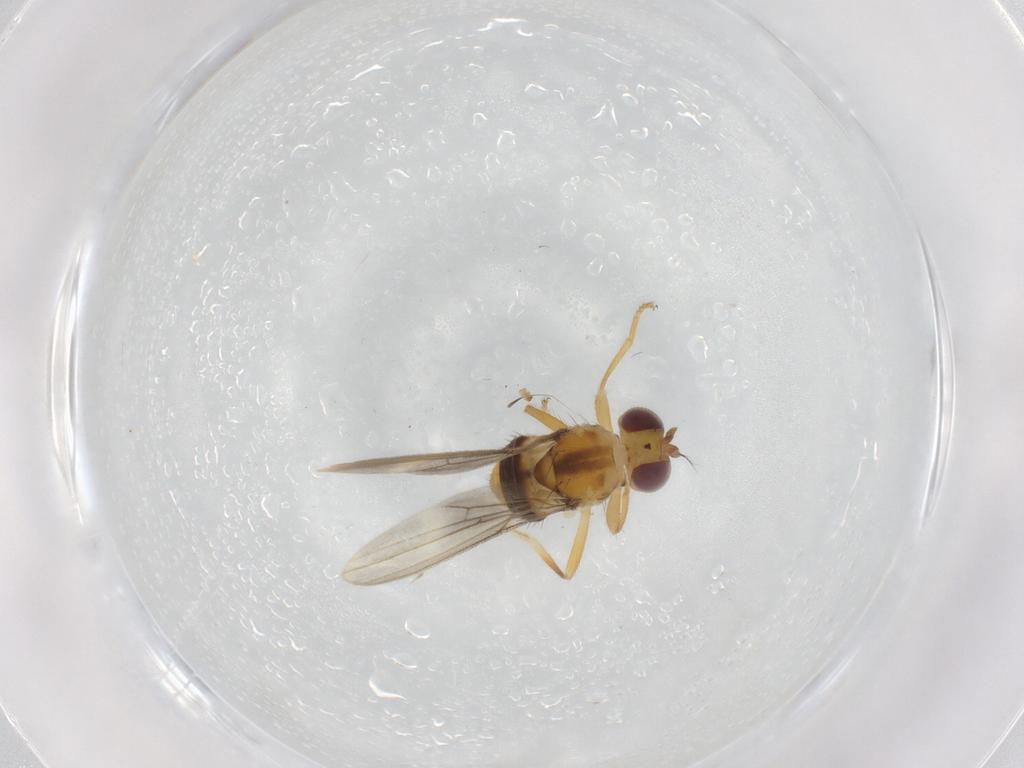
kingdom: Animalia
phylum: Arthropoda
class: Insecta
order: Diptera
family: Periscelididae
